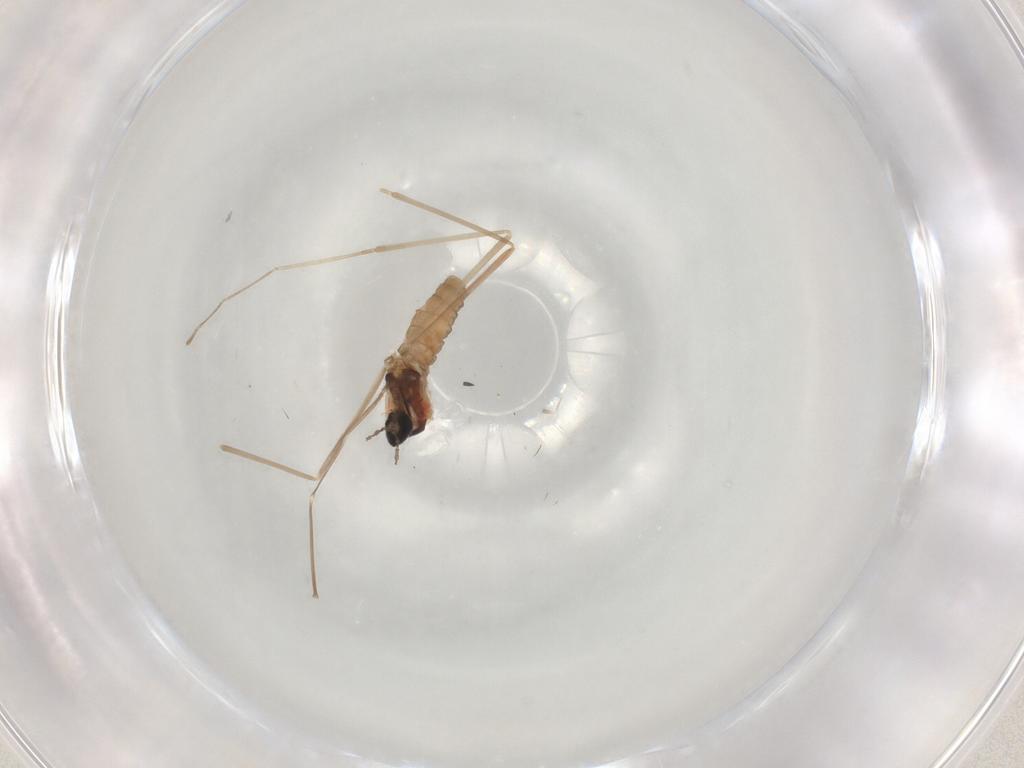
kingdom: Animalia
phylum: Arthropoda
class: Insecta
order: Diptera
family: Cecidomyiidae
